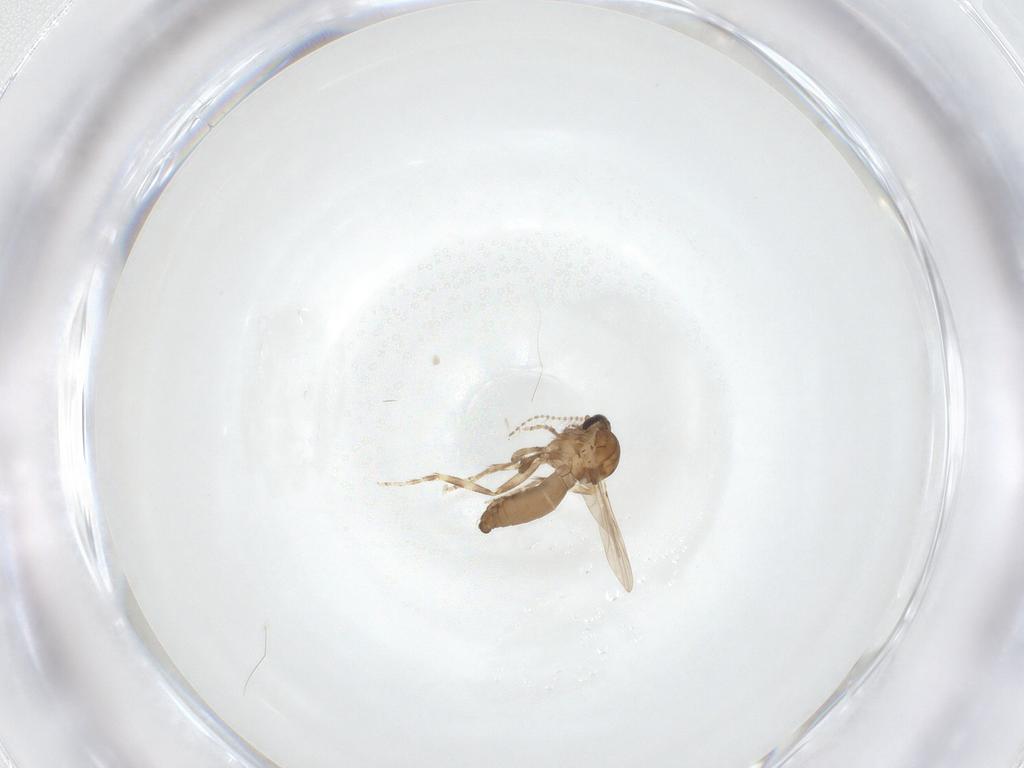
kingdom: Animalia
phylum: Arthropoda
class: Insecta
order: Diptera
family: Ceratopogonidae
